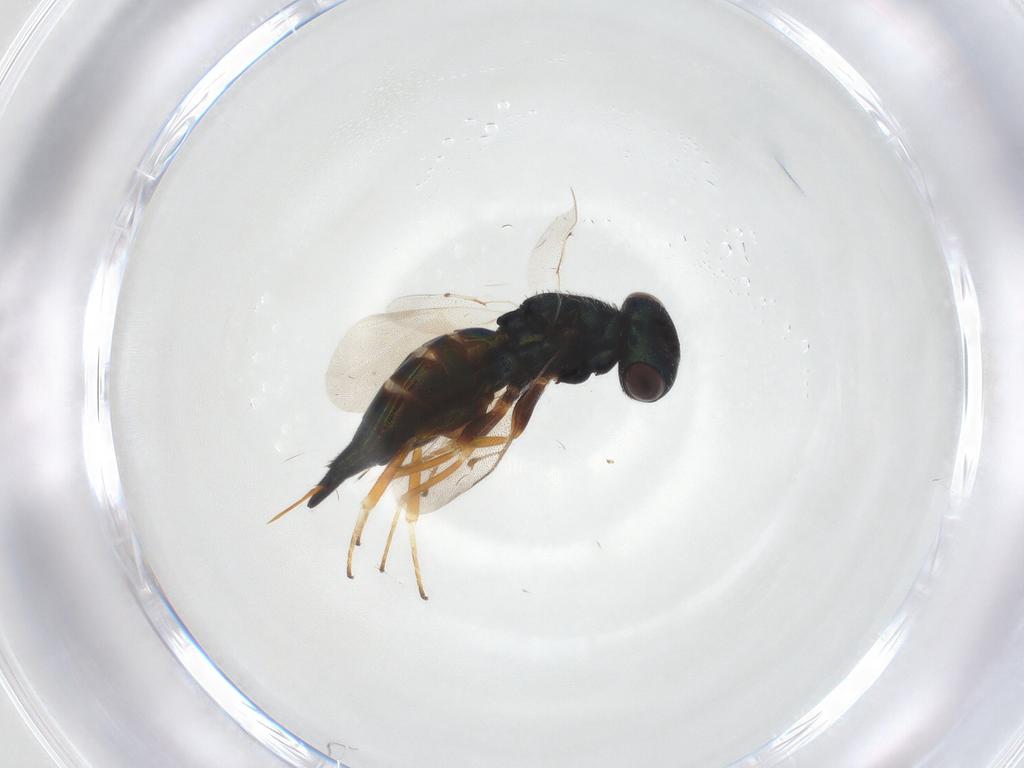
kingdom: Animalia
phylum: Arthropoda
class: Insecta
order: Hymenoptera
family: Pteromalidae
